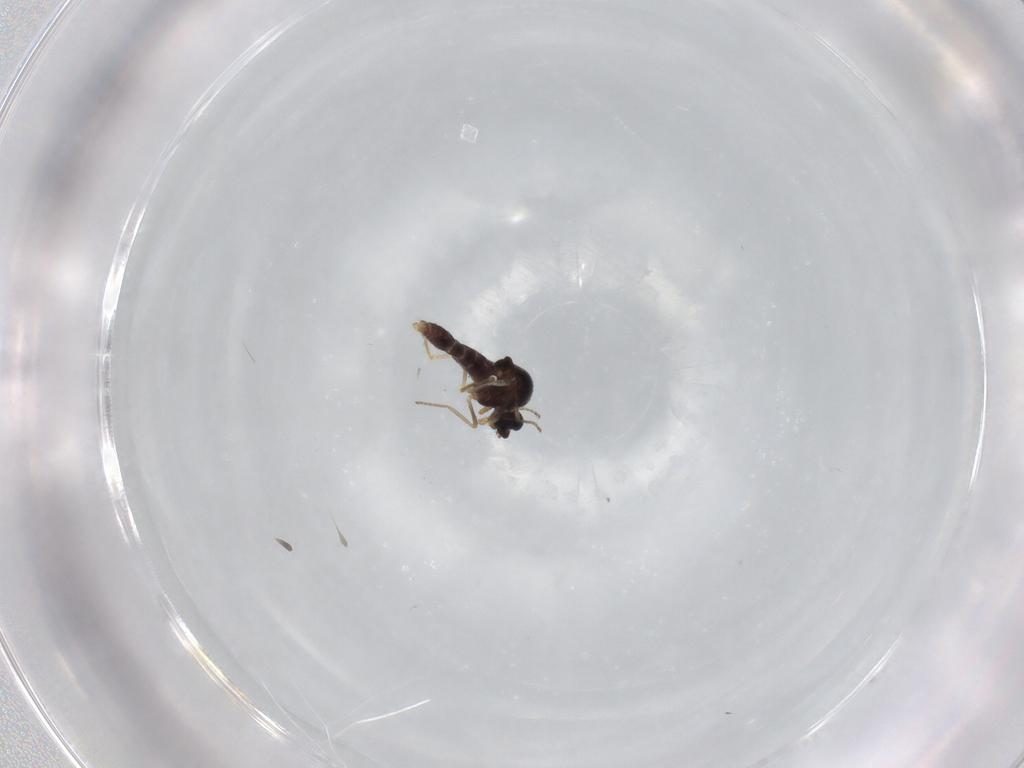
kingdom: Animalia
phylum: Arthropoda
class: Insecta
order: Diptera
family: Ceratopogonidae
